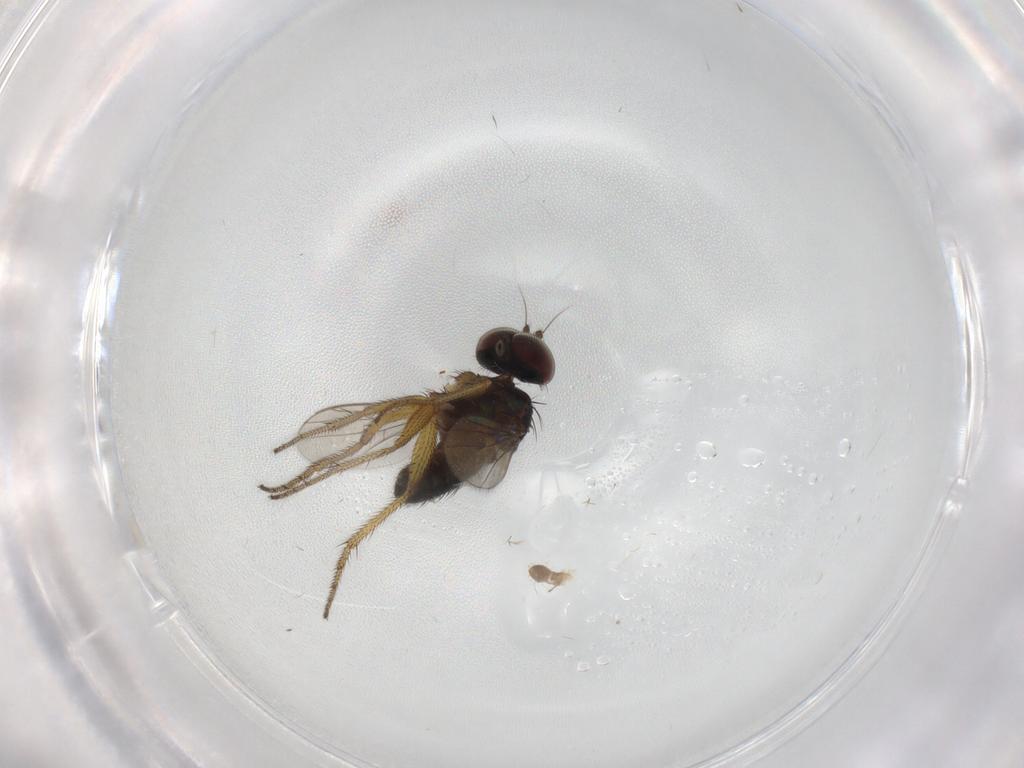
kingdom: Animalia
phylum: Arthropoda
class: Insecta
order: Diptera
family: Chironomidae
